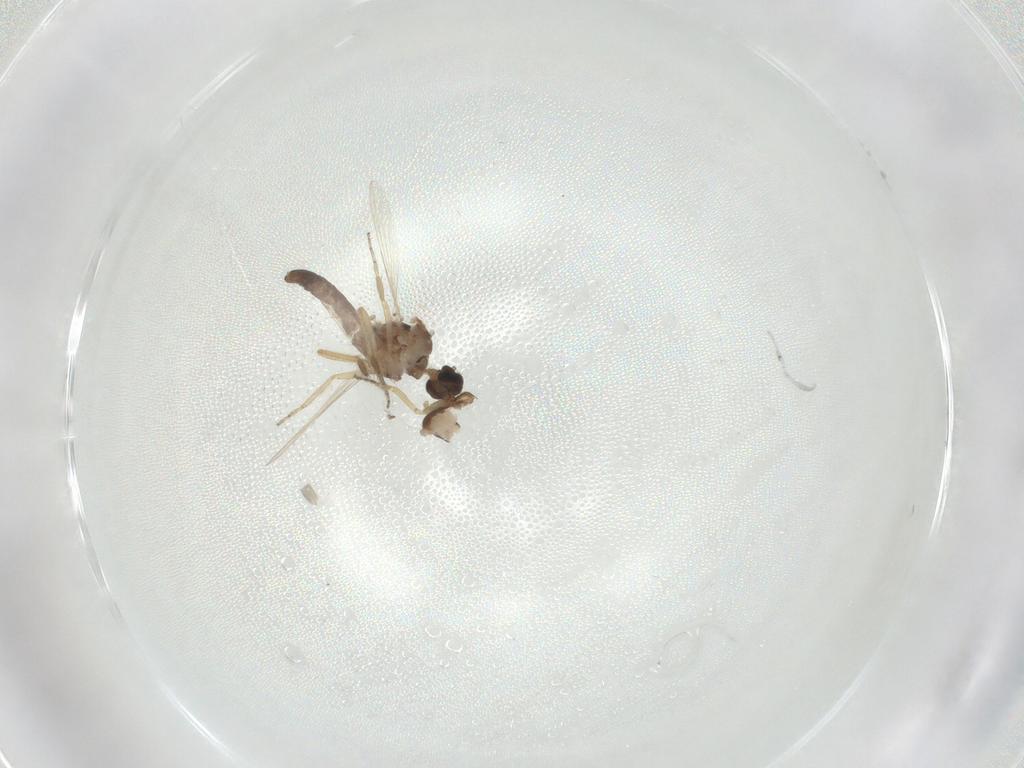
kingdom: Animalia
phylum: Arthropoda
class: Insecta
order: Diptera
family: Ceratopogonidae
